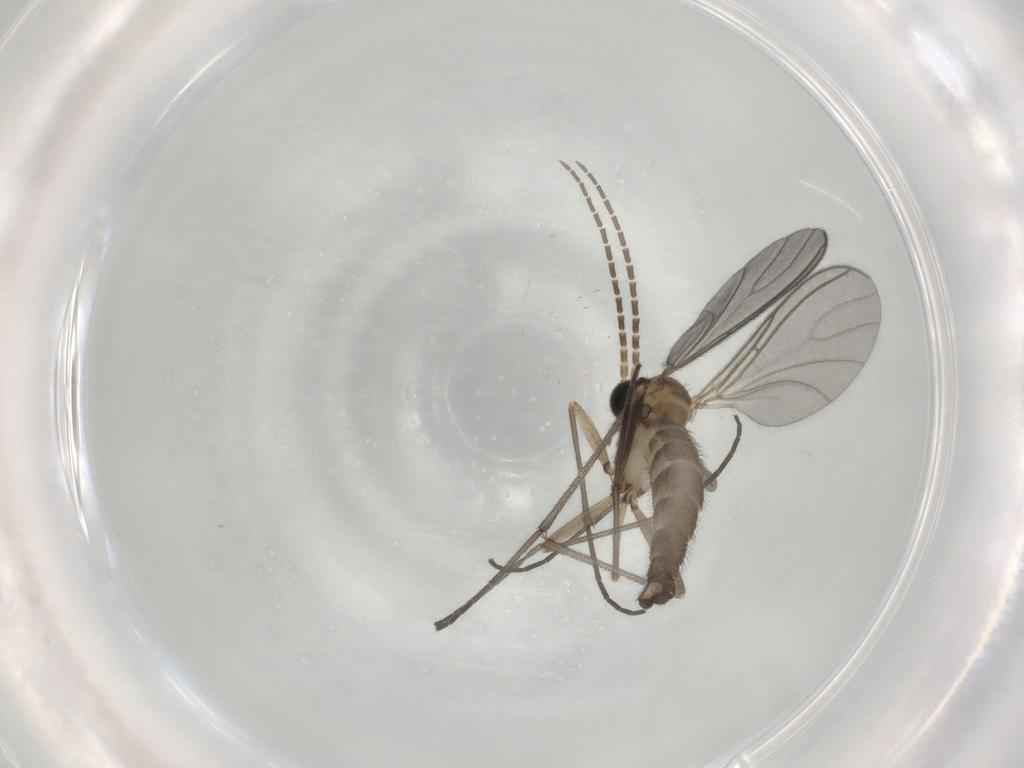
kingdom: Animalia
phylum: Arthropoda
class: Insecta
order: Diptera
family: Sciaridae
